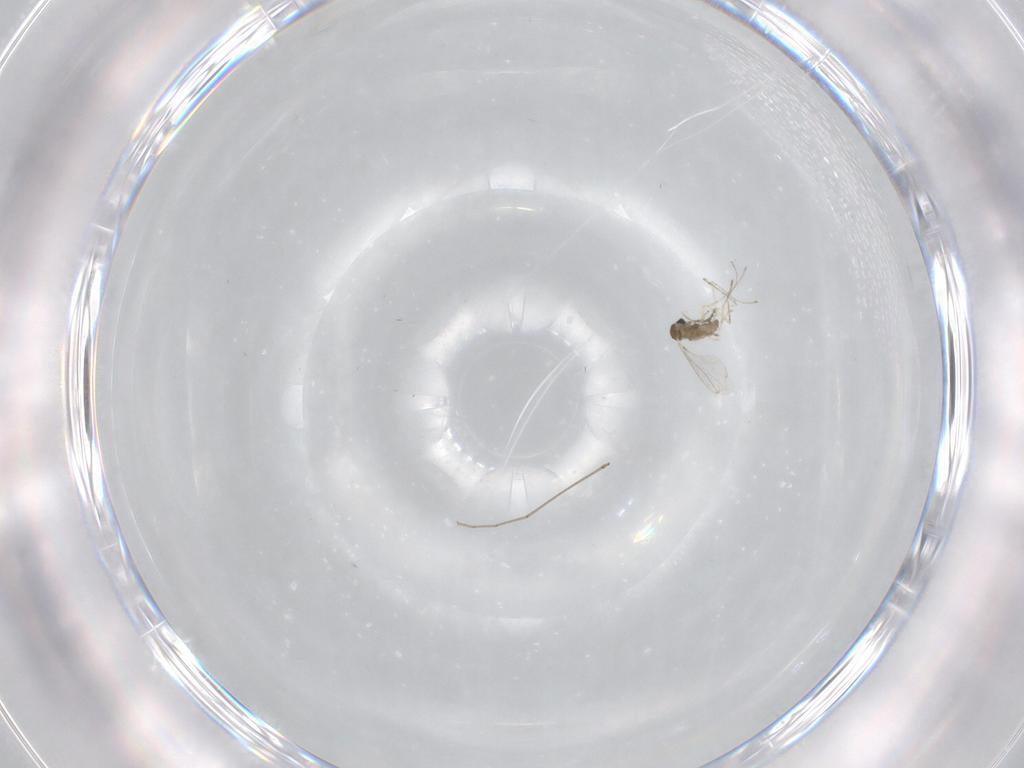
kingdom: Animalia
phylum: Arthropoda
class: Insecta
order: Diptera
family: Cecidomyiidae
